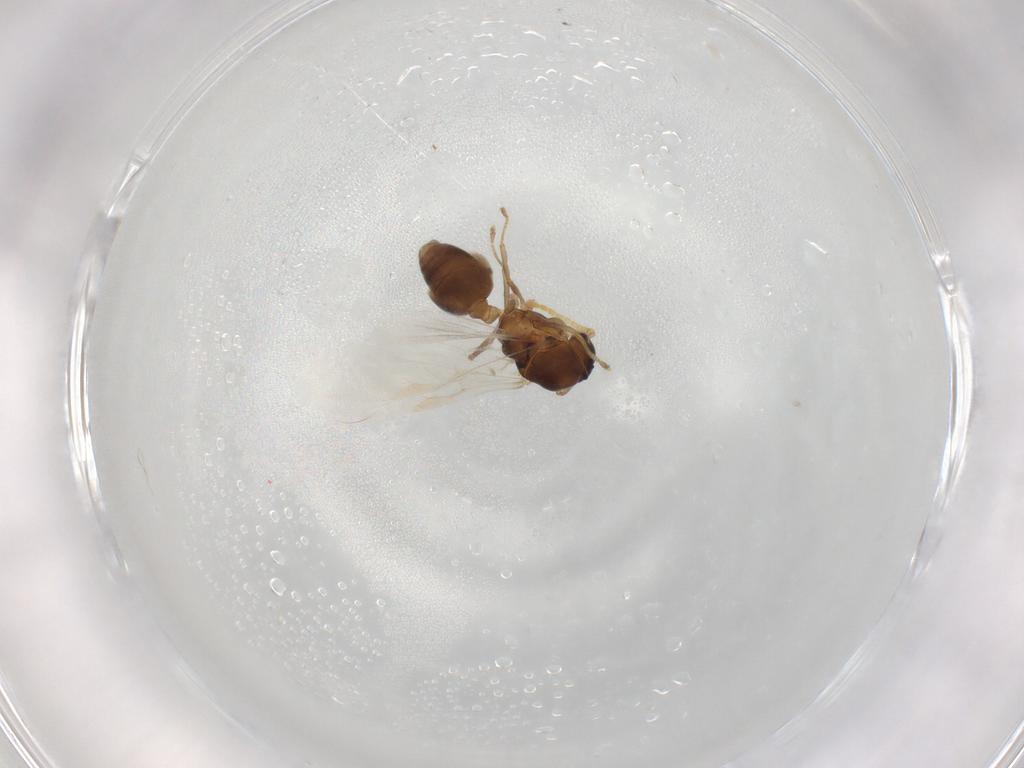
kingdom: Animalia
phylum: Arthropoda
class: Insecta
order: Hymenoptera
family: Formicidae
